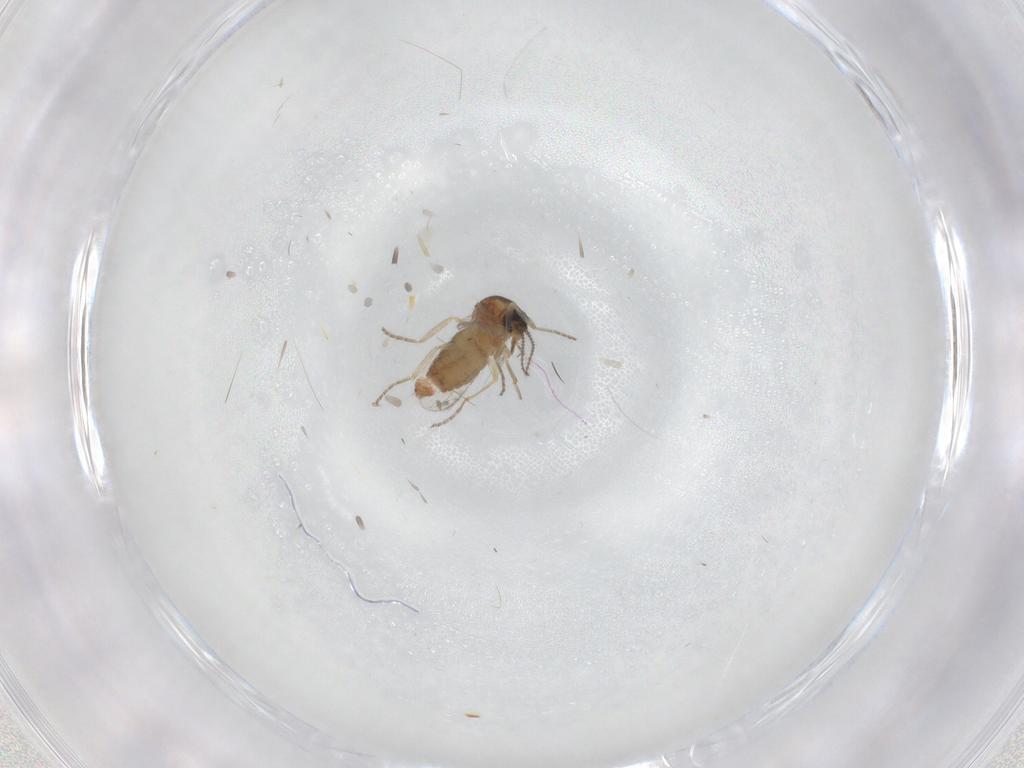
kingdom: Animalia
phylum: Arthropoda
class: Insecta
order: Diptera
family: Ceratopogonidae
